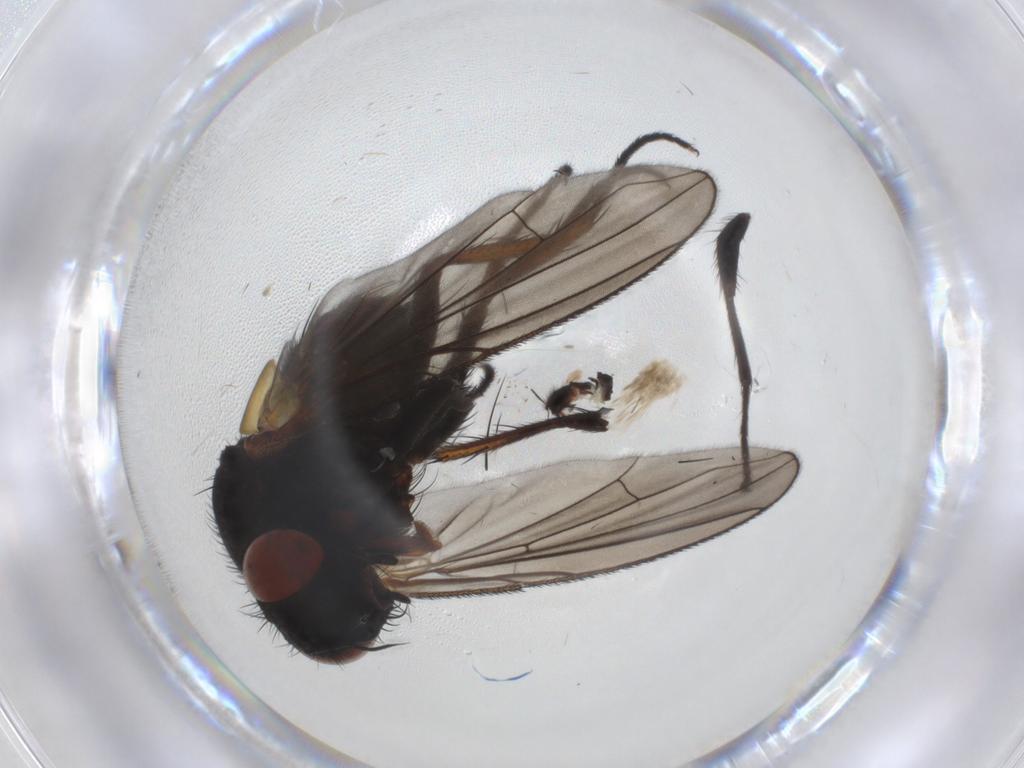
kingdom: Animalia
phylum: Arthropoda
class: Insecta
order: Diptera
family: Tachinidae
